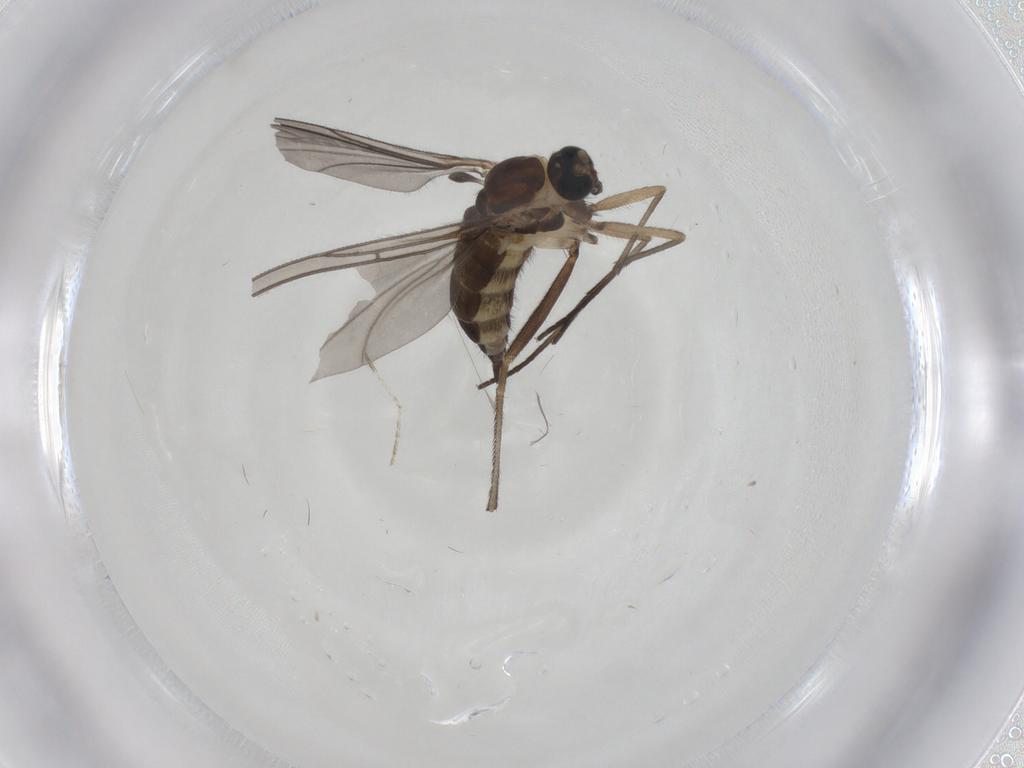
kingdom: Animalia
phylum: Arthropoda
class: Insecta
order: Diptera
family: Sciaridae
